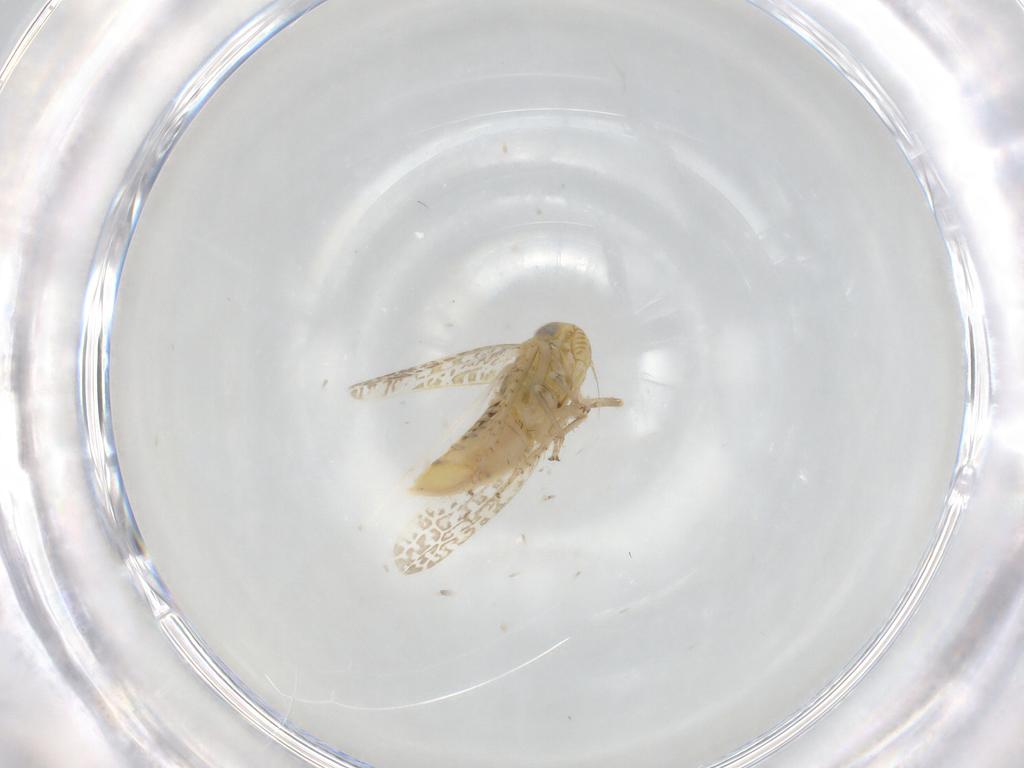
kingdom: Animalia
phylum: Arthropoda
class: Insecta
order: Hemiptera
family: Cicadellidae
